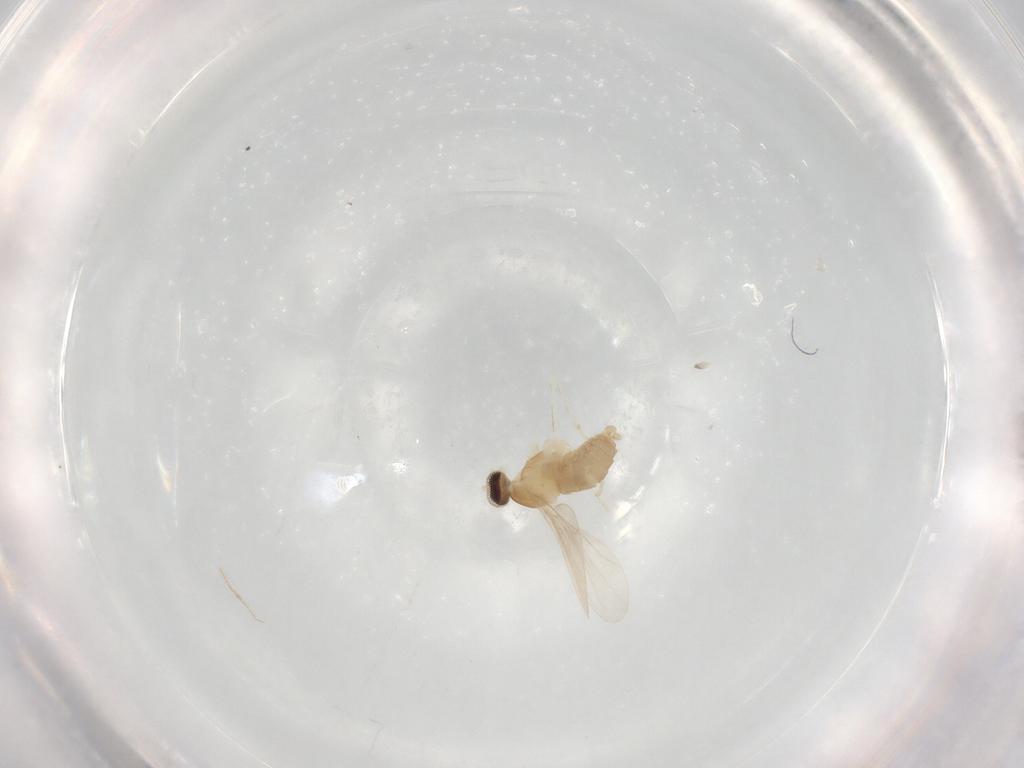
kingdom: Animalia
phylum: Arthropoda
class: Insecta
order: Diptera
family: Cecidomyiidae
